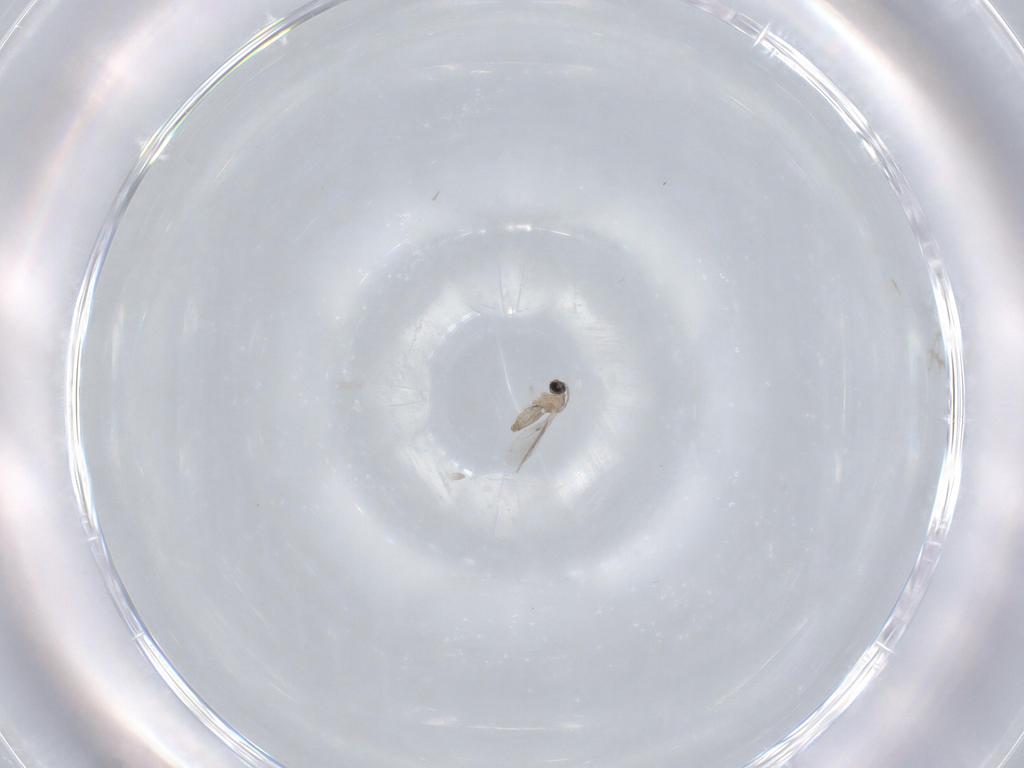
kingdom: Animalia
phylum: Arthropoda
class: Insecta
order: Diptera
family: Cecidomyiidae
